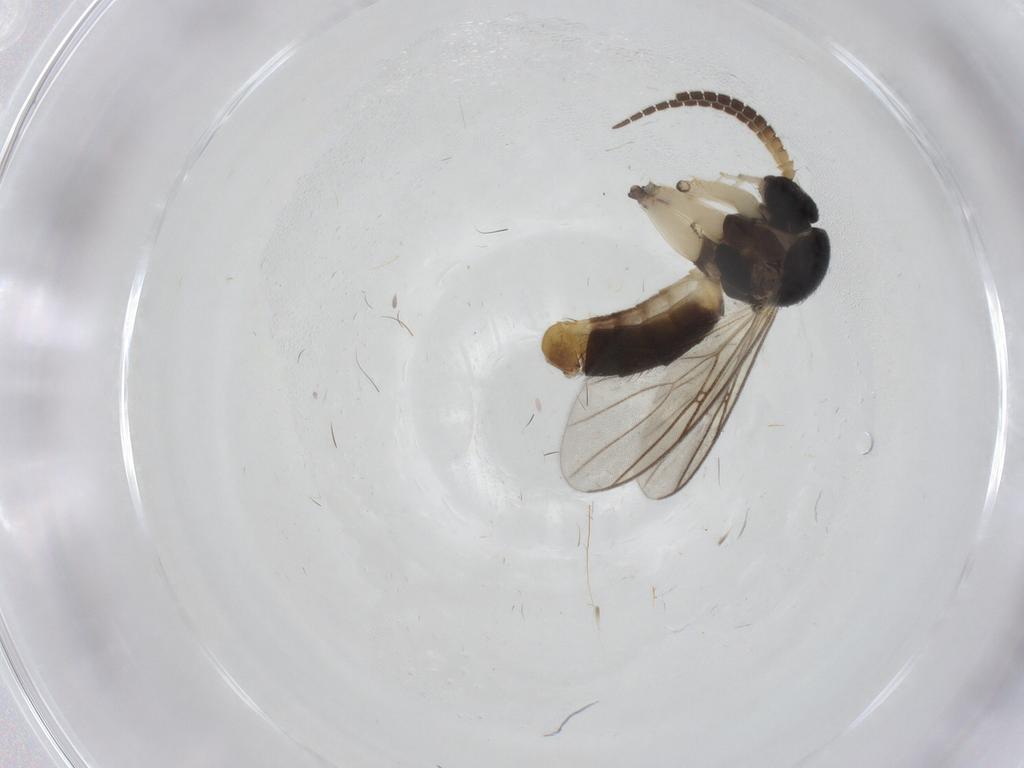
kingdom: Animalia
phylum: Arthropoda
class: Insecta
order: Diptera
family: Mycetophilidae
